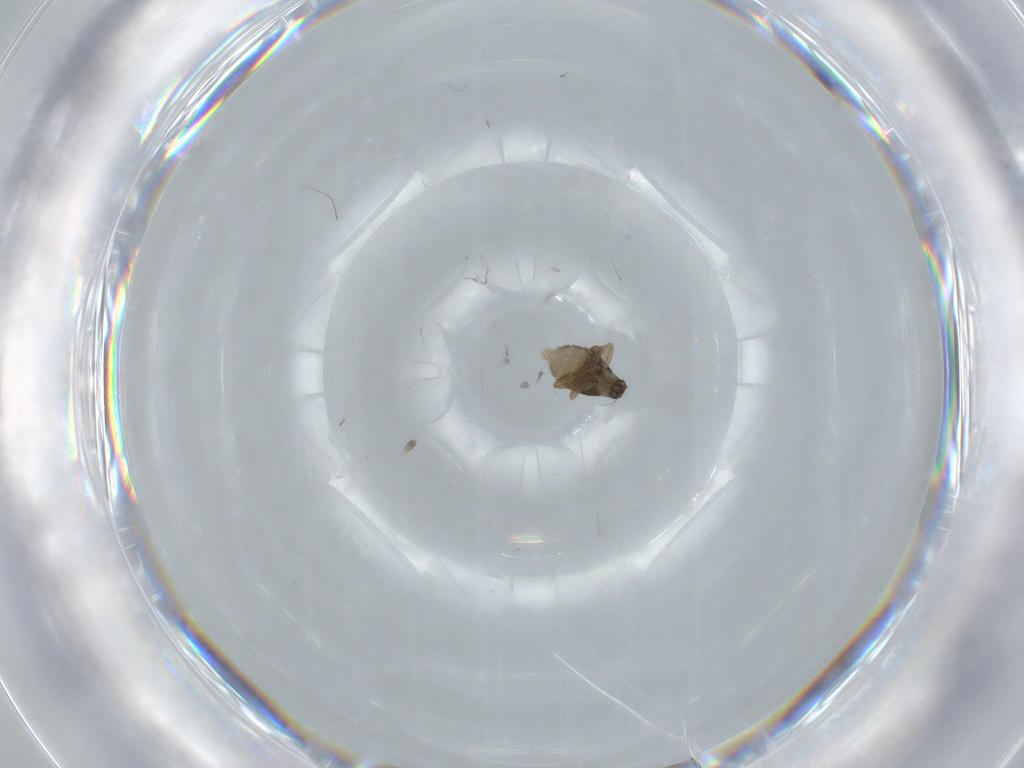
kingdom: Animalia
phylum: Arthropoda
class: Insecta
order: Diptera
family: Phoridae
